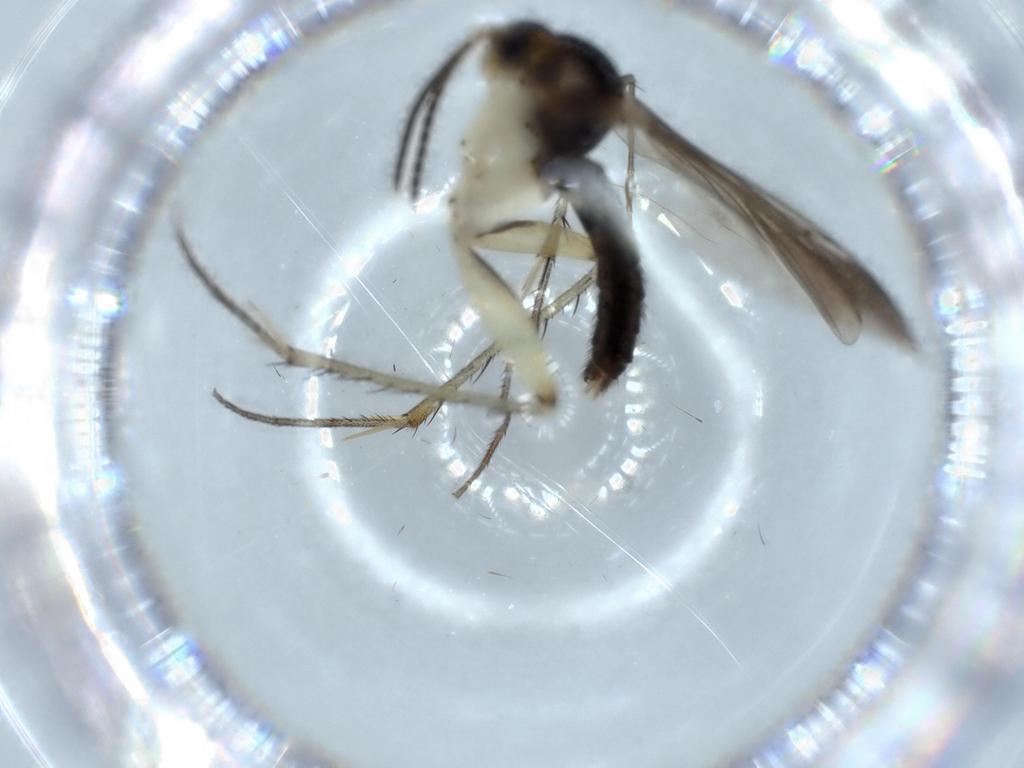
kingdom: Animalia
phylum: Arthropoda
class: Insecta
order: Diptera
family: Ceratopogonidae
